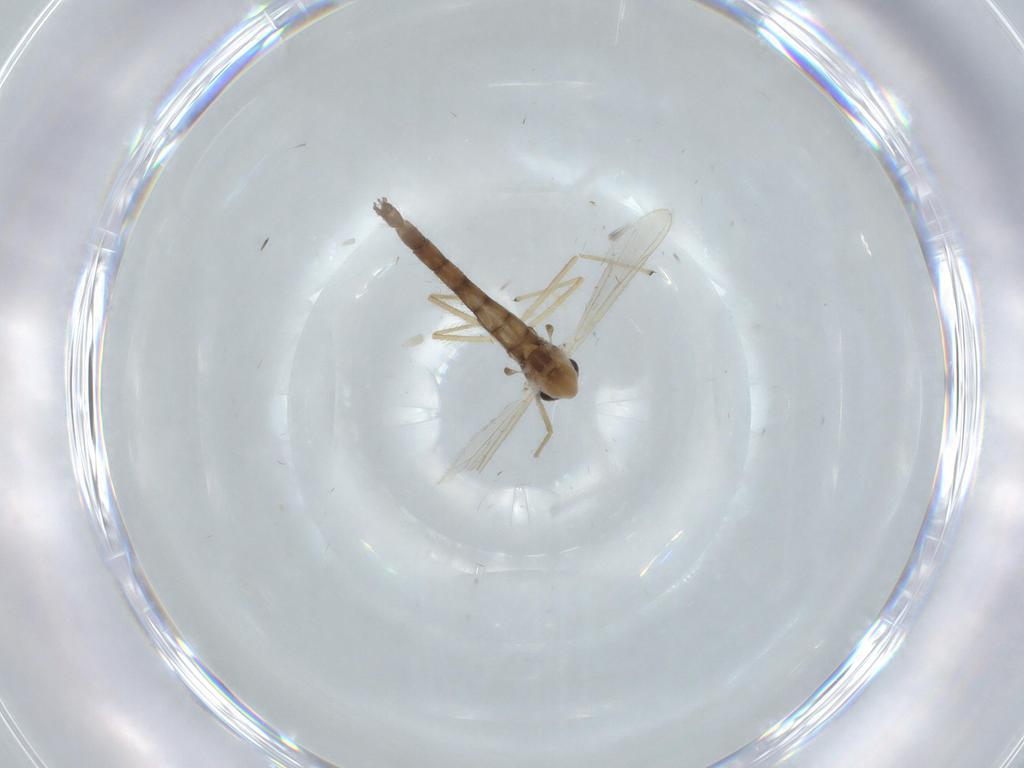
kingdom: Animalia
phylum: Arthropoda
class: Insecta
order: Diptera
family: Chironomidae
